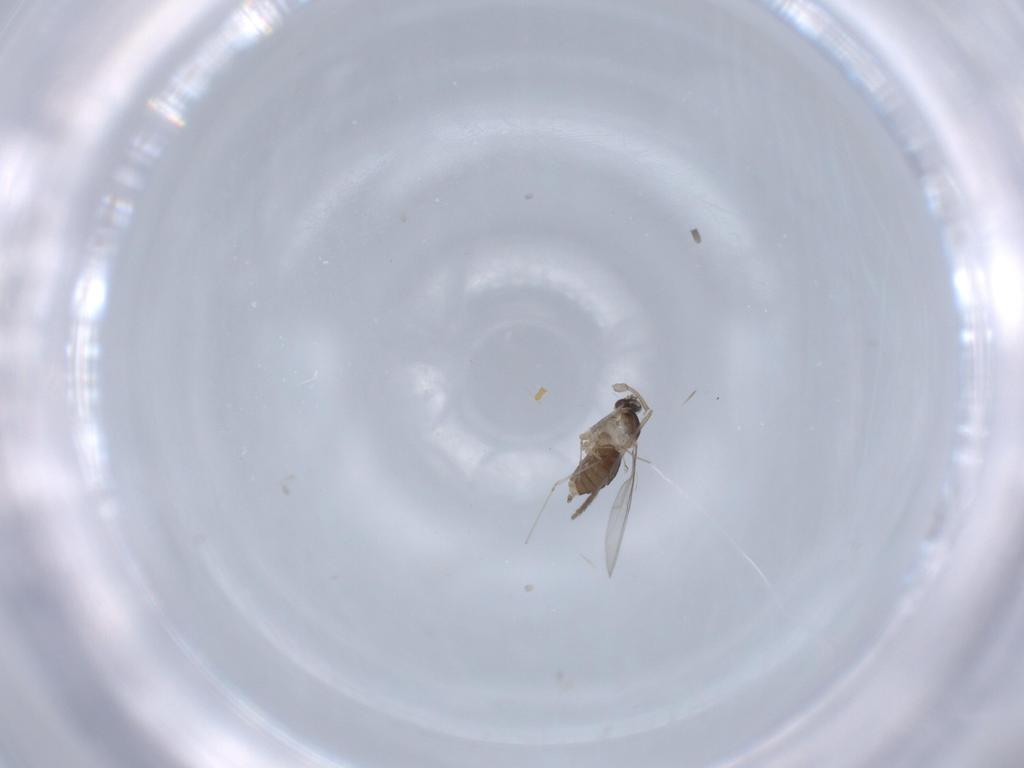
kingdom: Animalia
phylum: Arthropoda
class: Insecta
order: Diptera
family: Cecidomyiidae
